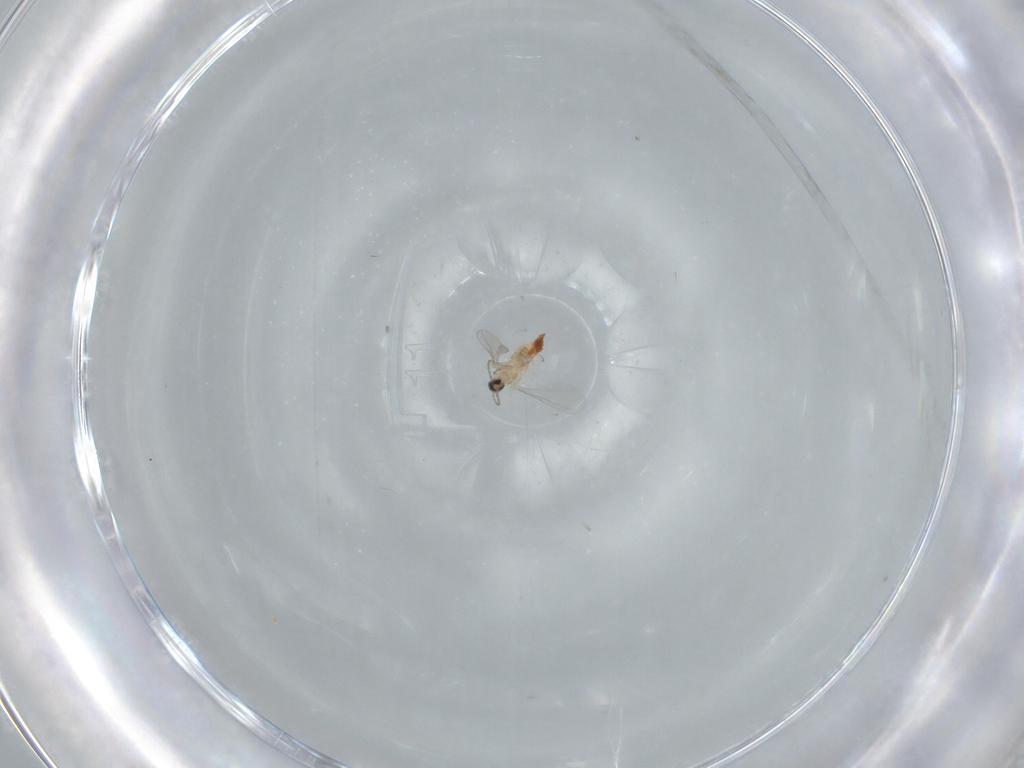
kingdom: Animalia
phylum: Arthropoda
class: Insecta
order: Diptera
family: Cecidomyiidae
